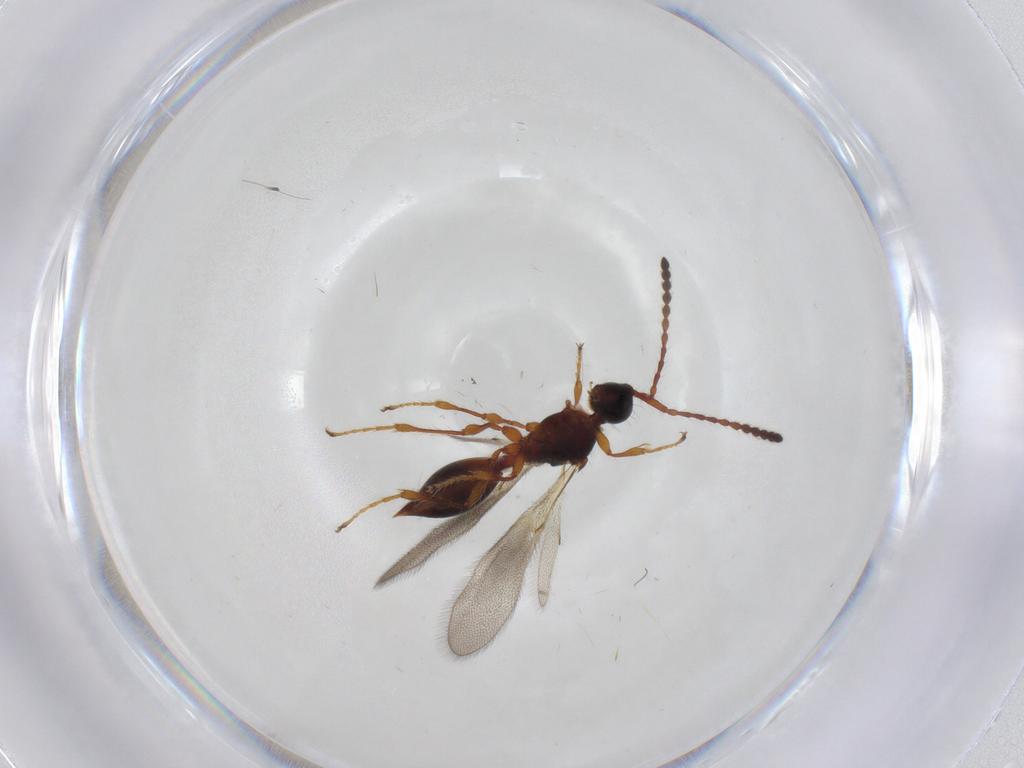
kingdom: Animalia
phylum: Arthropoda
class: Insecta
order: Hymenoptera
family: Diapriidae
